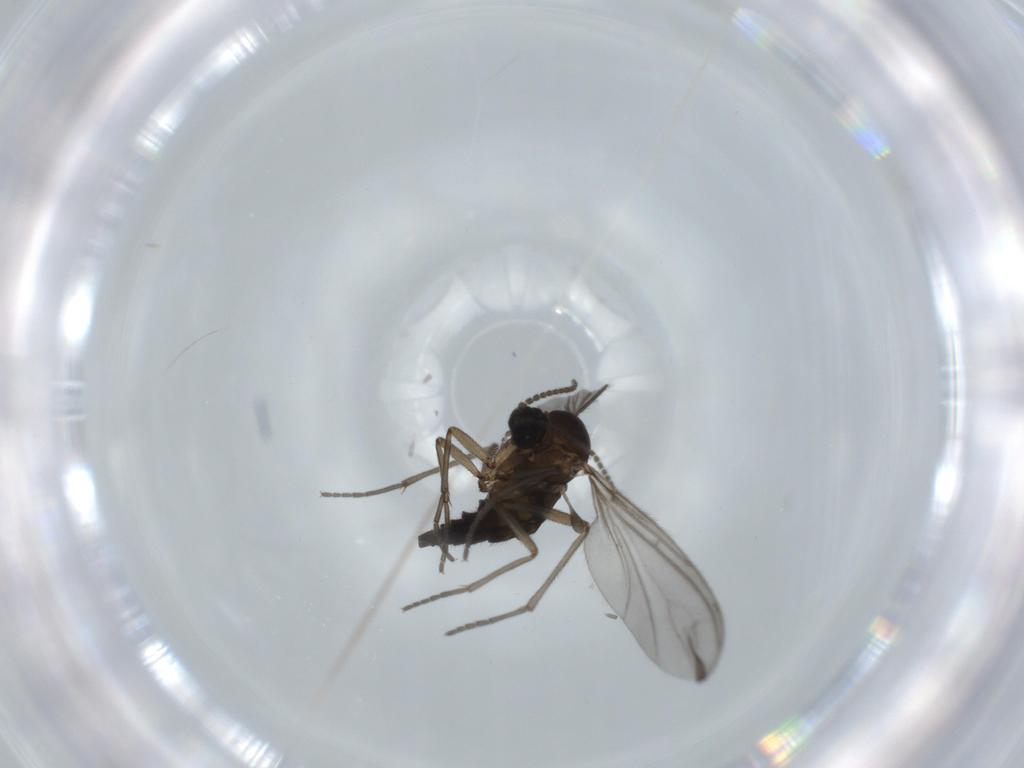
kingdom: Animalia
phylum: Arthropoda
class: Insecta
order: Diptera
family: Sciaridae
